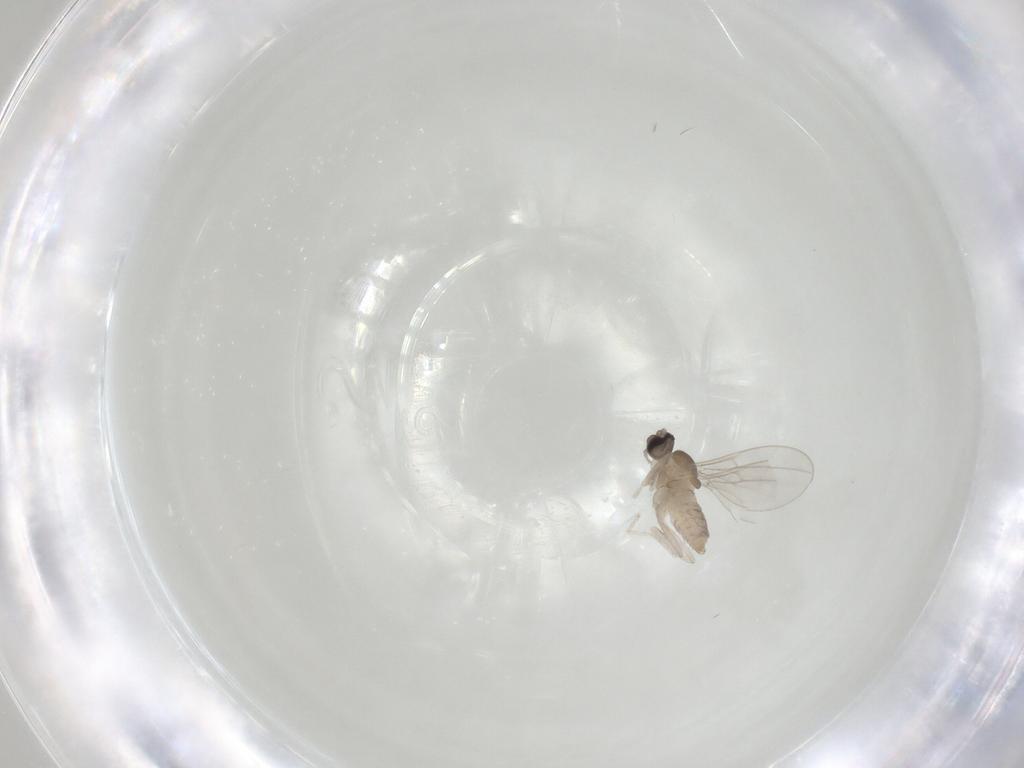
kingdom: Animalia
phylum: Arthropoda
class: Insecta
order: Diptera
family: Cecidomyiidae
